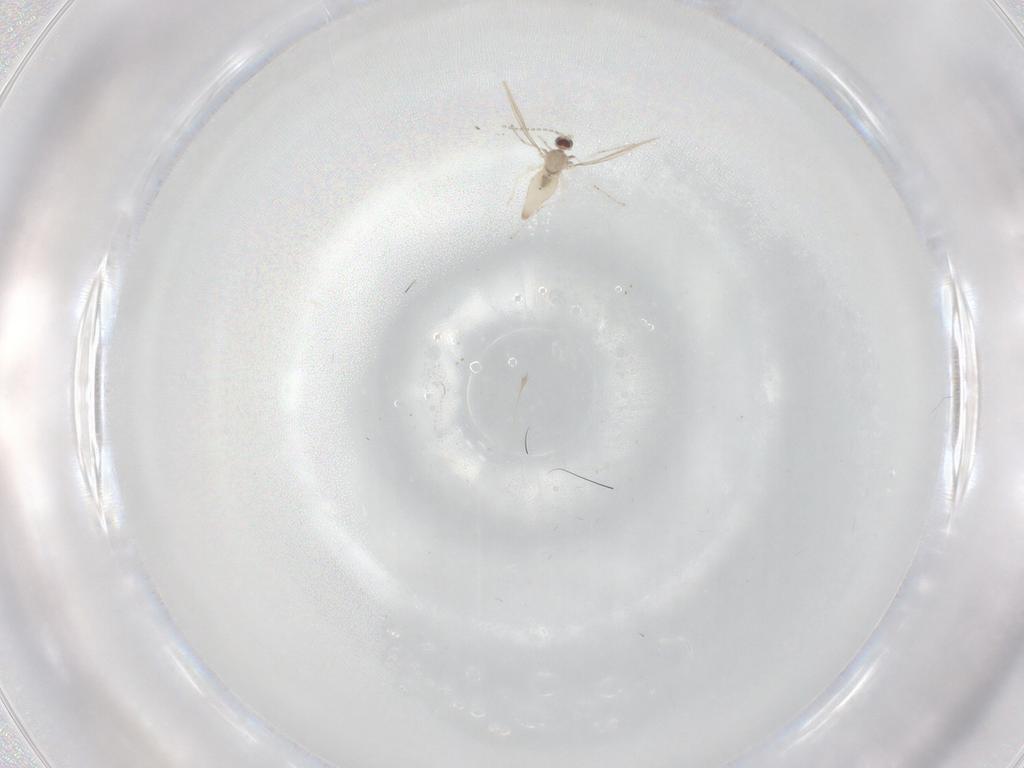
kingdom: Animalia
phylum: Arthropoda
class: Insecta
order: Diptera
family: Cecidomyiidae
